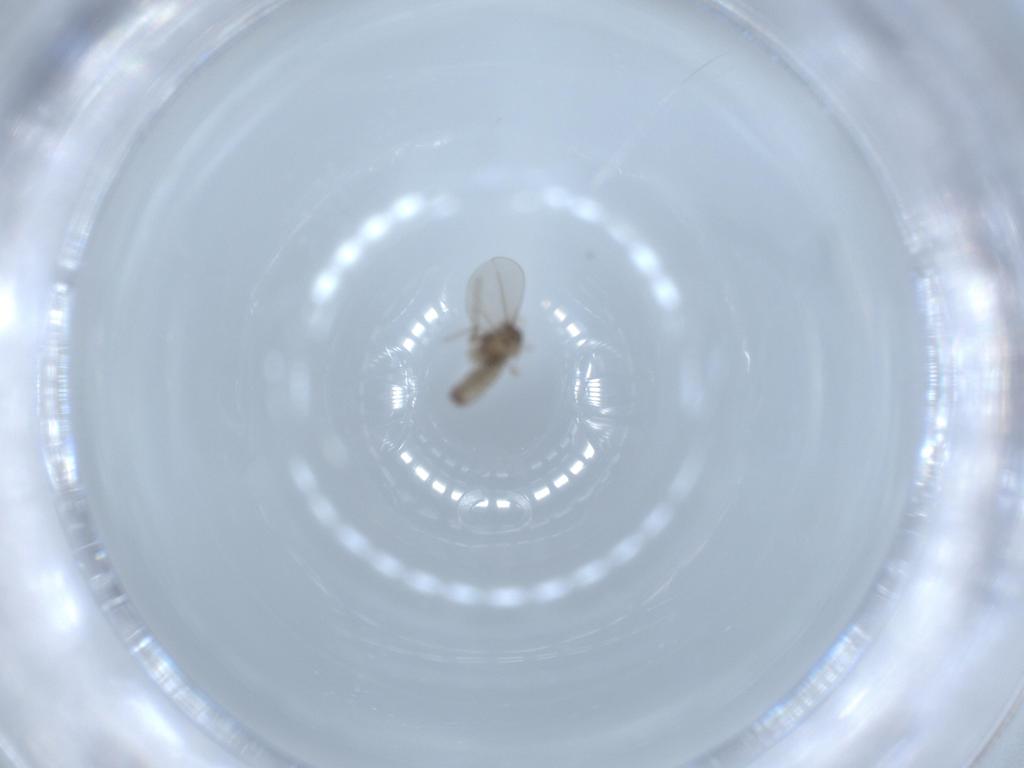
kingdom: Animalia
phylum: Arthropoda
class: Insecta
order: Diptera
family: Cecidomyiidae
